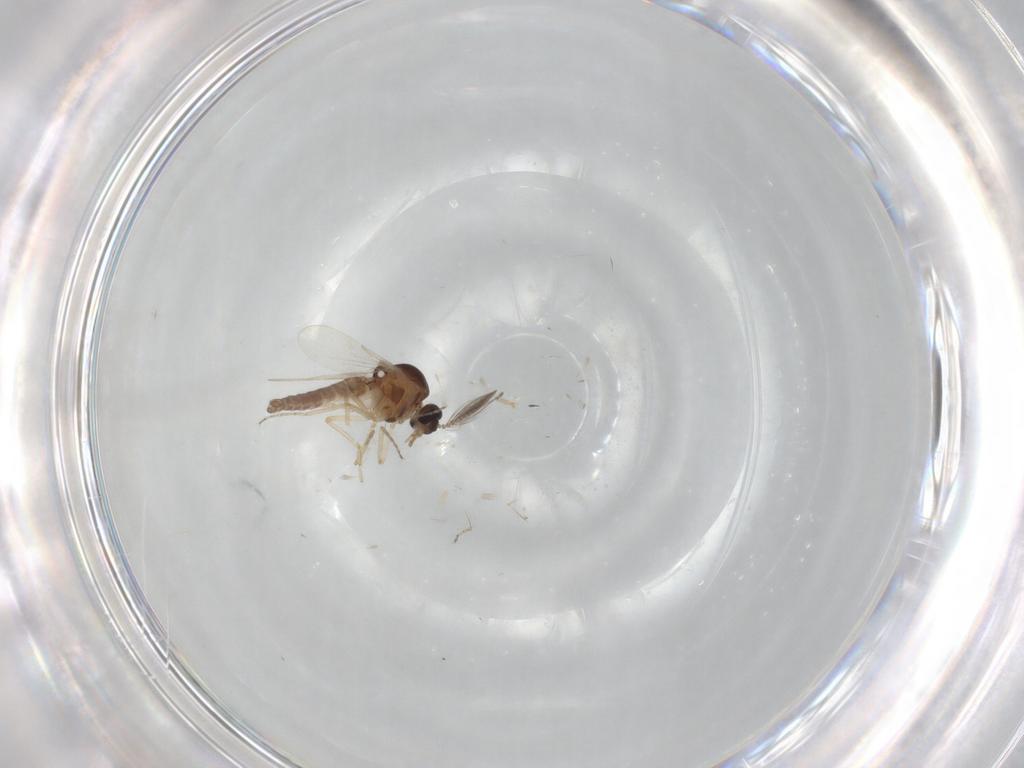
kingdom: Animalia
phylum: Arthropoda
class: Insecta
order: Diptera
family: Ceratopogonidae
